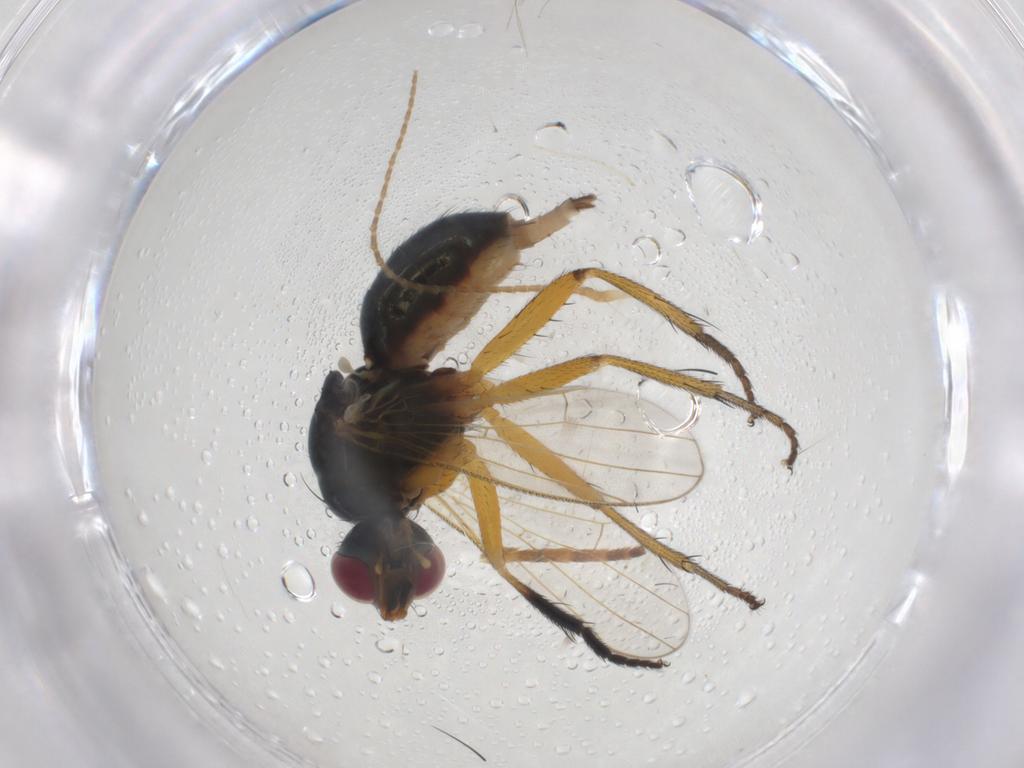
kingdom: Animalia
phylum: Arthropoda
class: Insecta
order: Diptera
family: Muscidae
